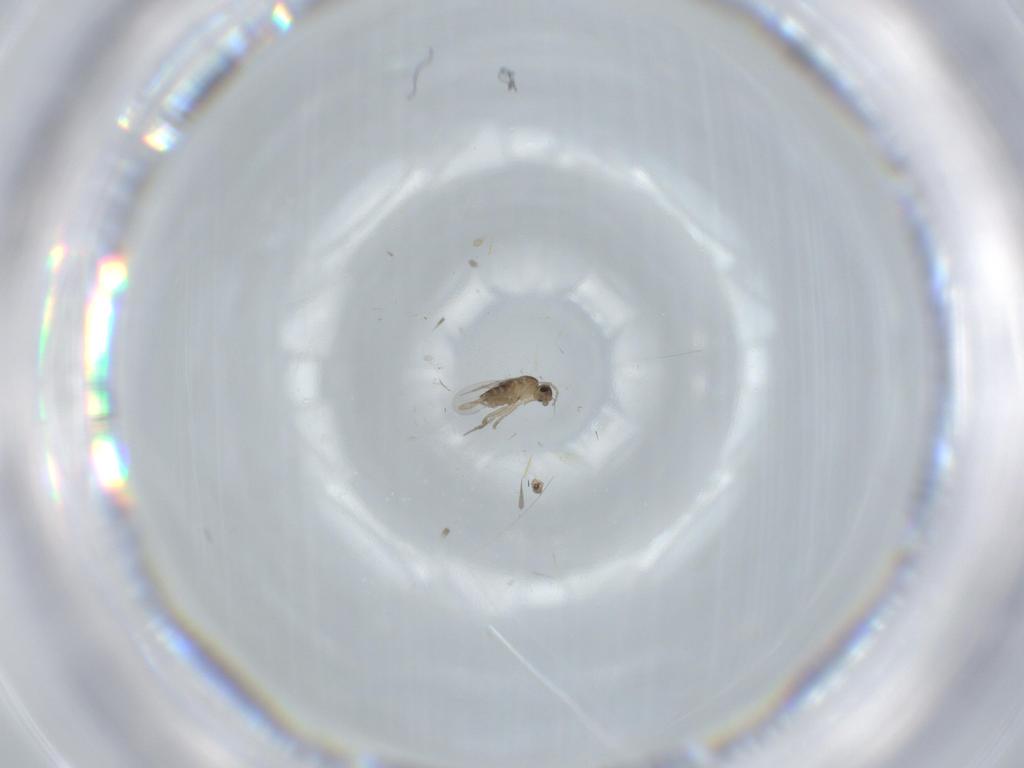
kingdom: Animalia
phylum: Arthropoda
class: Insecta
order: Diptera
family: Phoridae
